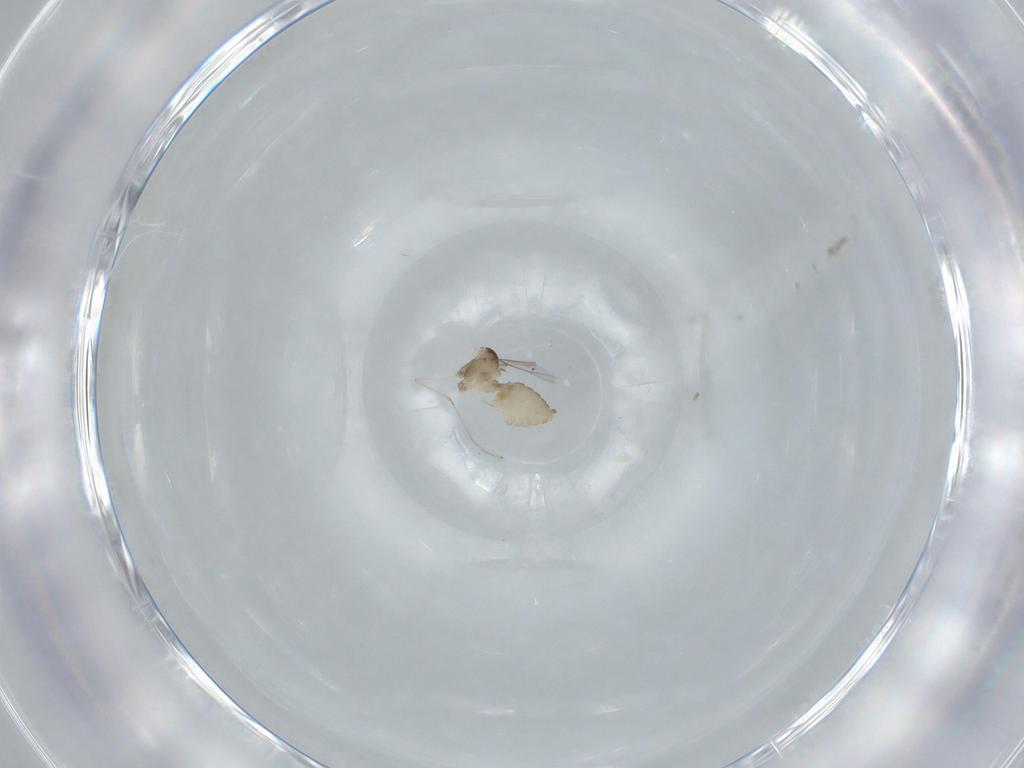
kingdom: Animalia
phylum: Arthropoda
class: Insecta
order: Diptera
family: Cecidomyiidae
